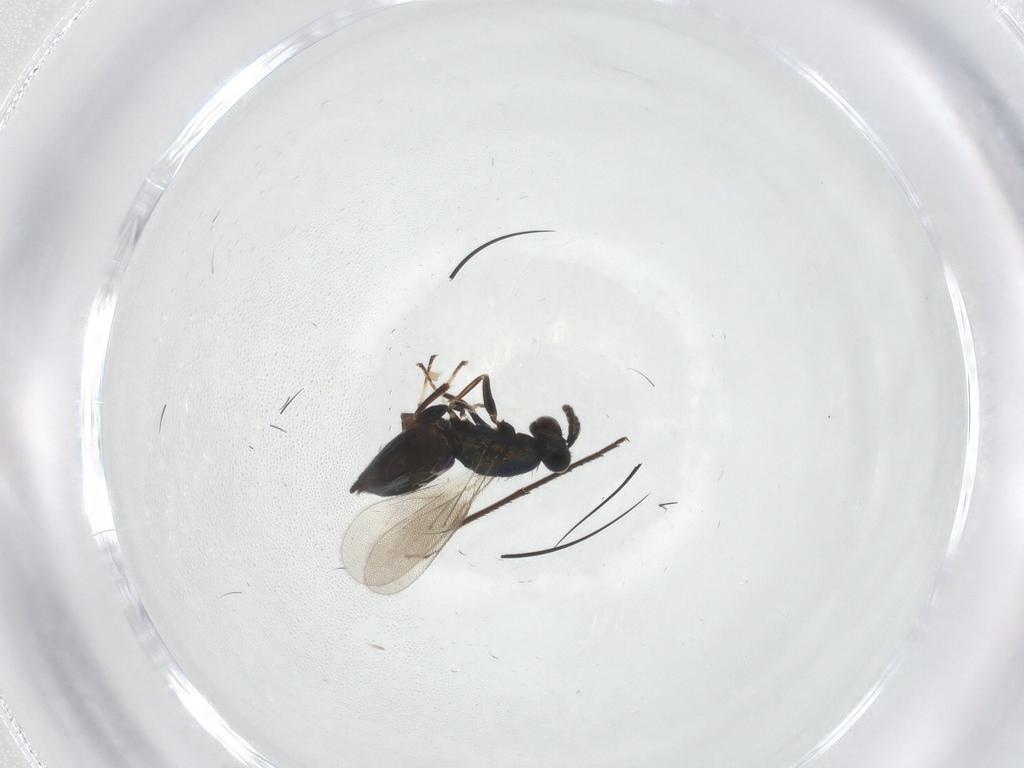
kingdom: Animalia
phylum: Arthropoda
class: Insecta
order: Hymenoptera
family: Eulophidae
